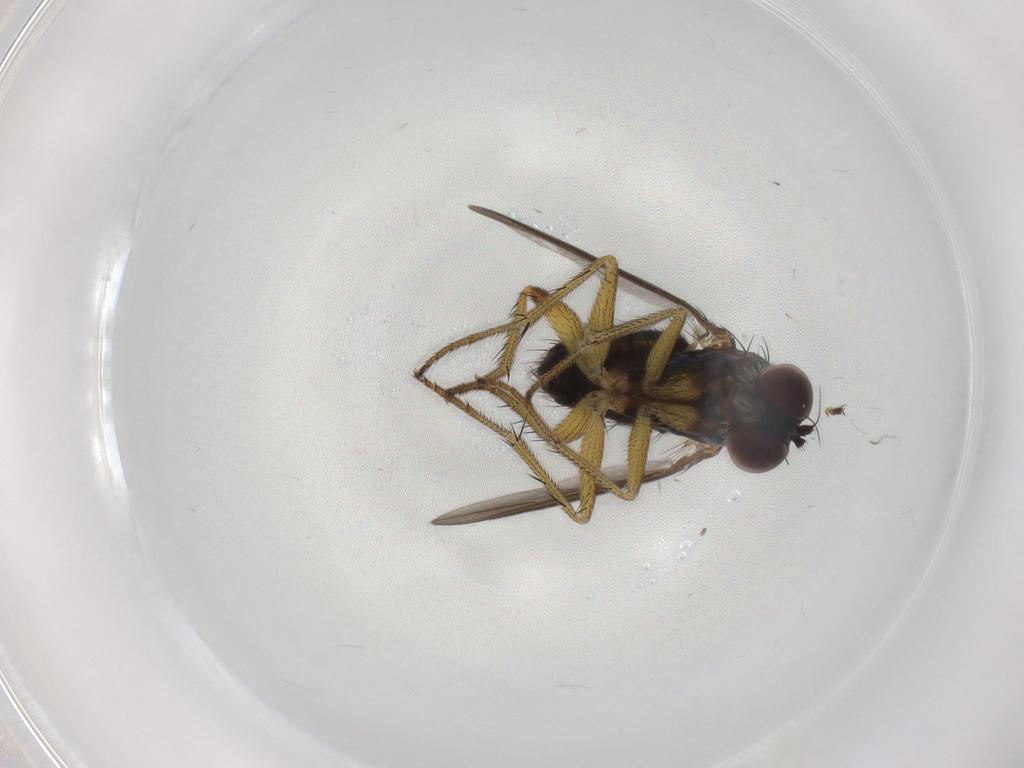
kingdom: Animalia
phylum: Arthropoda
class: Insecta
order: Diptera
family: Dolichopodidae
